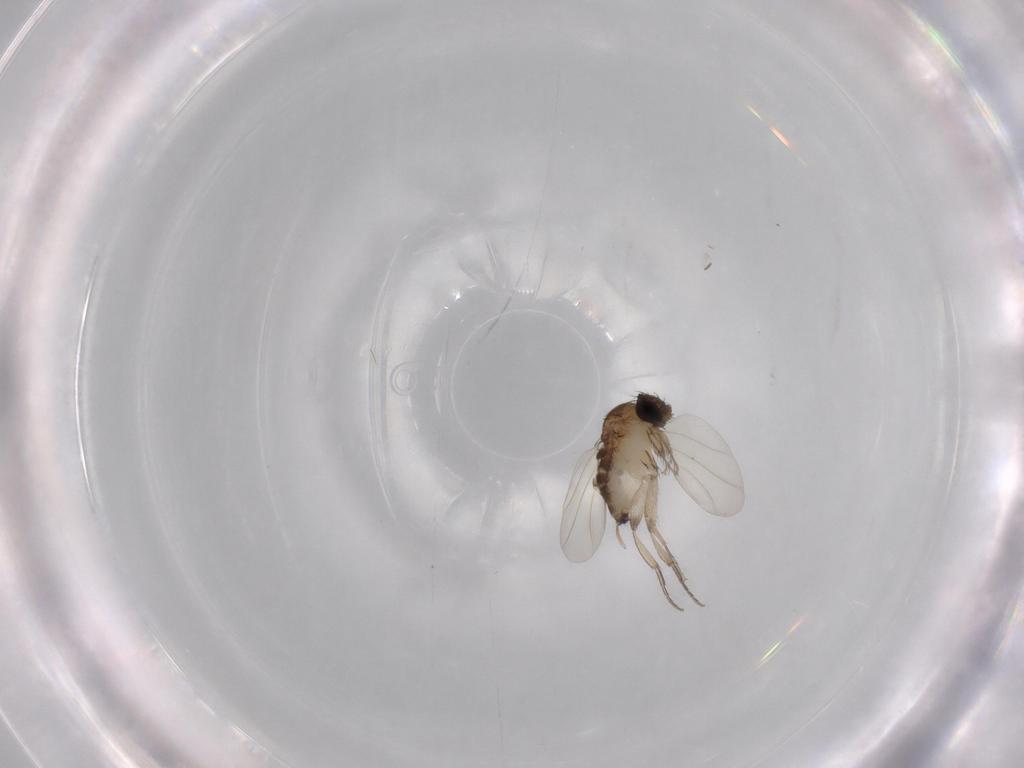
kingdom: Animalia
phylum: Arthropoda
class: Insecta
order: Diptera
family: Phoridae
